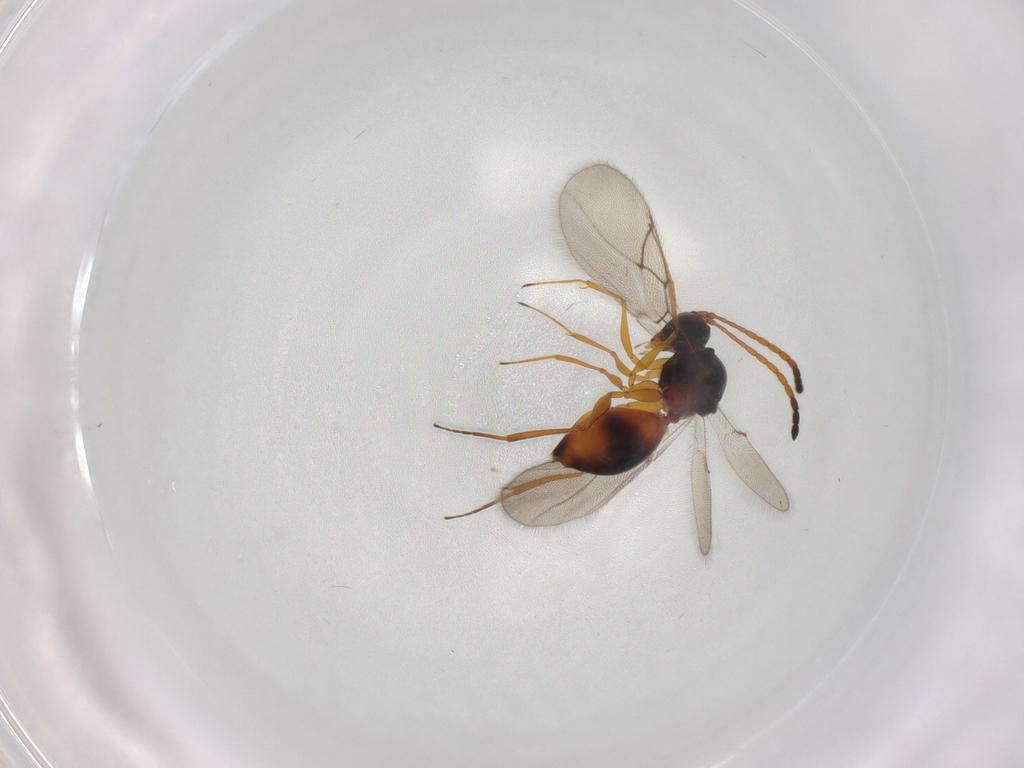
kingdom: Animalia
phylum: Arthropoda
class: Insecta
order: Hymenoptera
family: Figitidae
